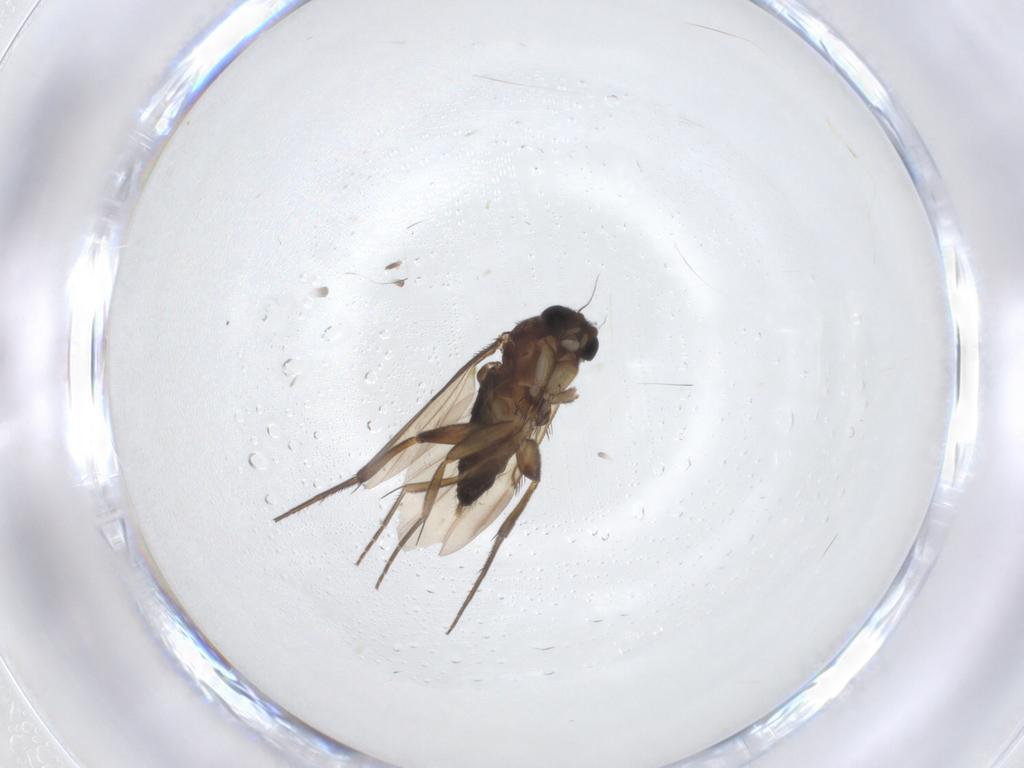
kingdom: Animalia
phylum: Arthropoda
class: Insecta
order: Diptera
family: Phoridae
